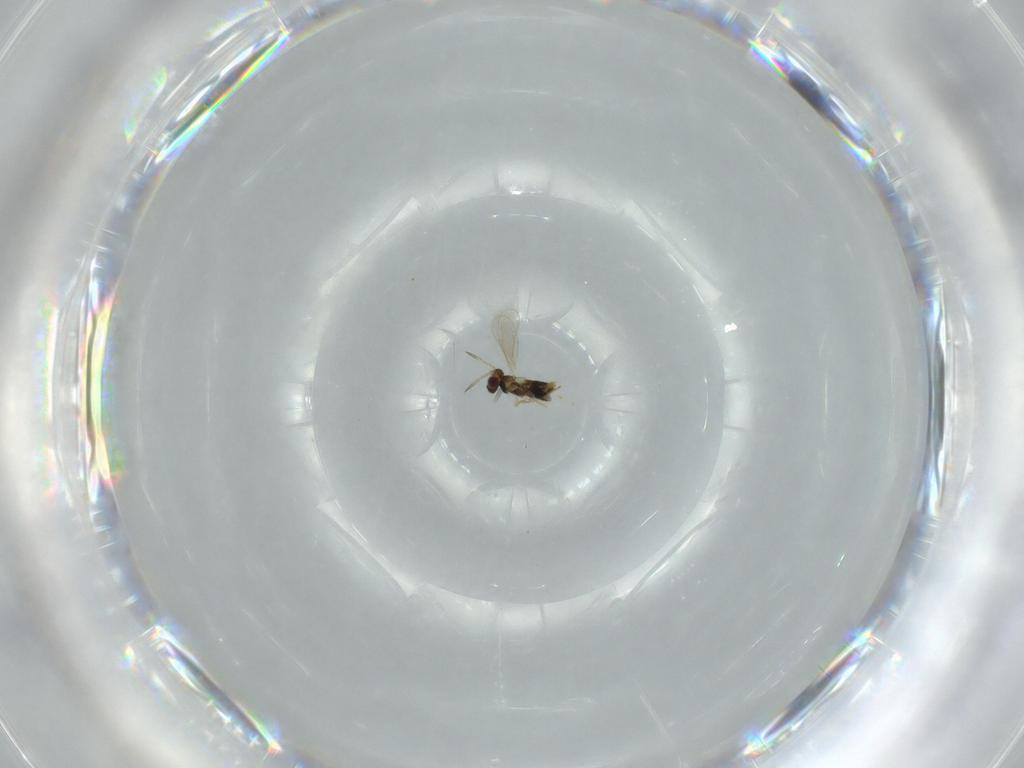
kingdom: Animalia
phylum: Arthropoda
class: Insecta
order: Hymenoptera
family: Aphelinidae
